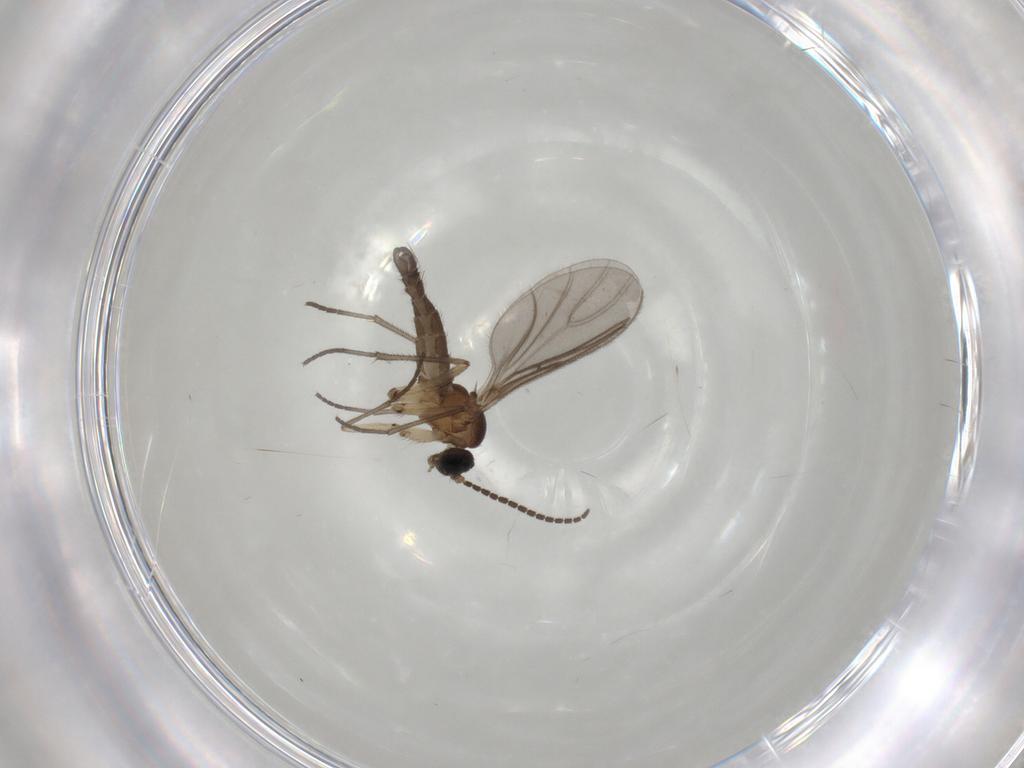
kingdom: Animalia
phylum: Arthropoda
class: Insecta
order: Diptera
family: Sciaridae
